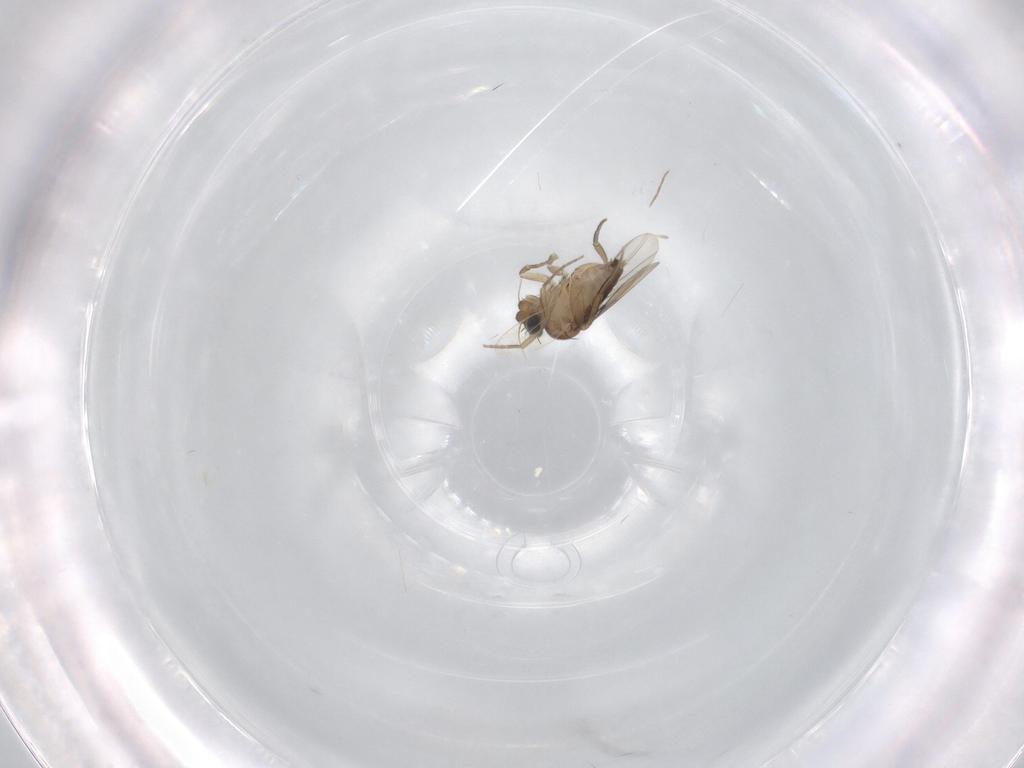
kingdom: Animalia
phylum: Arthropoda
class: Insecta
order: Diptera
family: Phoridae
